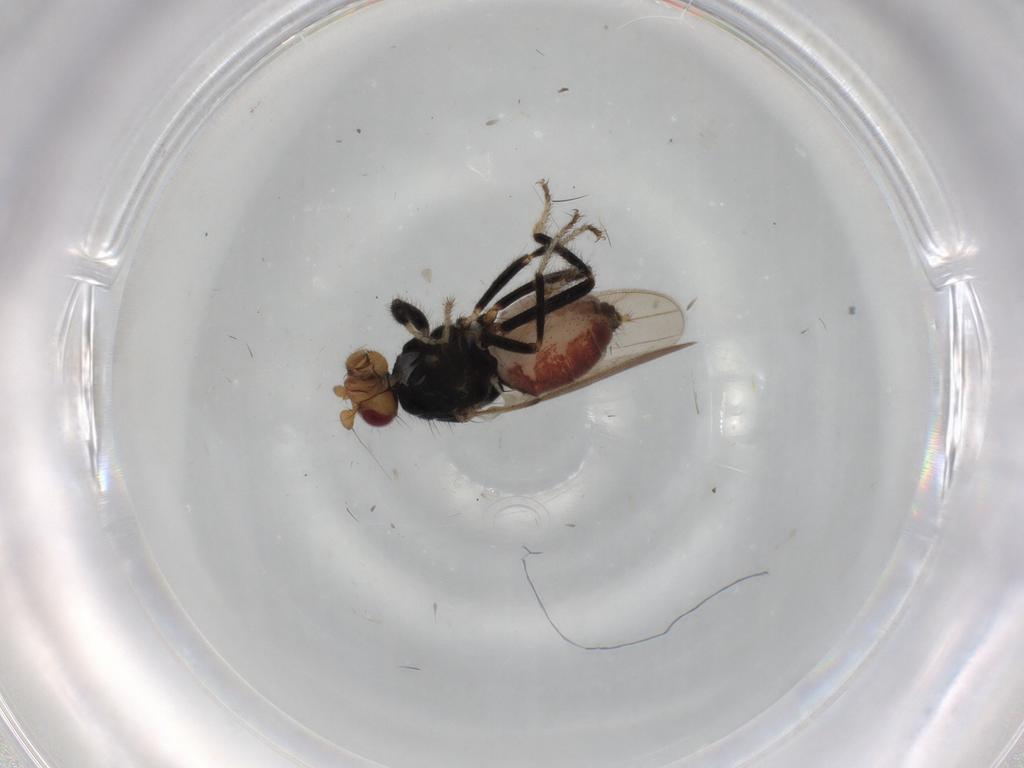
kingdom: Animalia
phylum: Arthropoda
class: Insecta
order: Diptera
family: Sphaeroceridae
